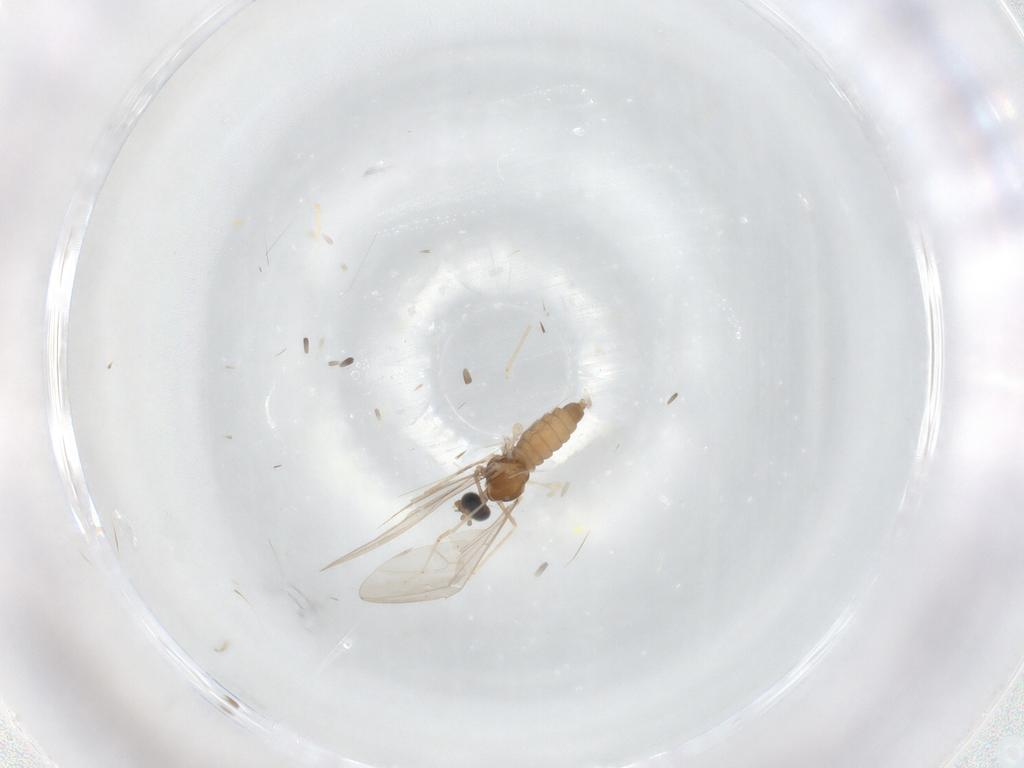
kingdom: Animalia
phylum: Arthropoda
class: Insecta
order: Diptera
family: Cecidomyiidae
